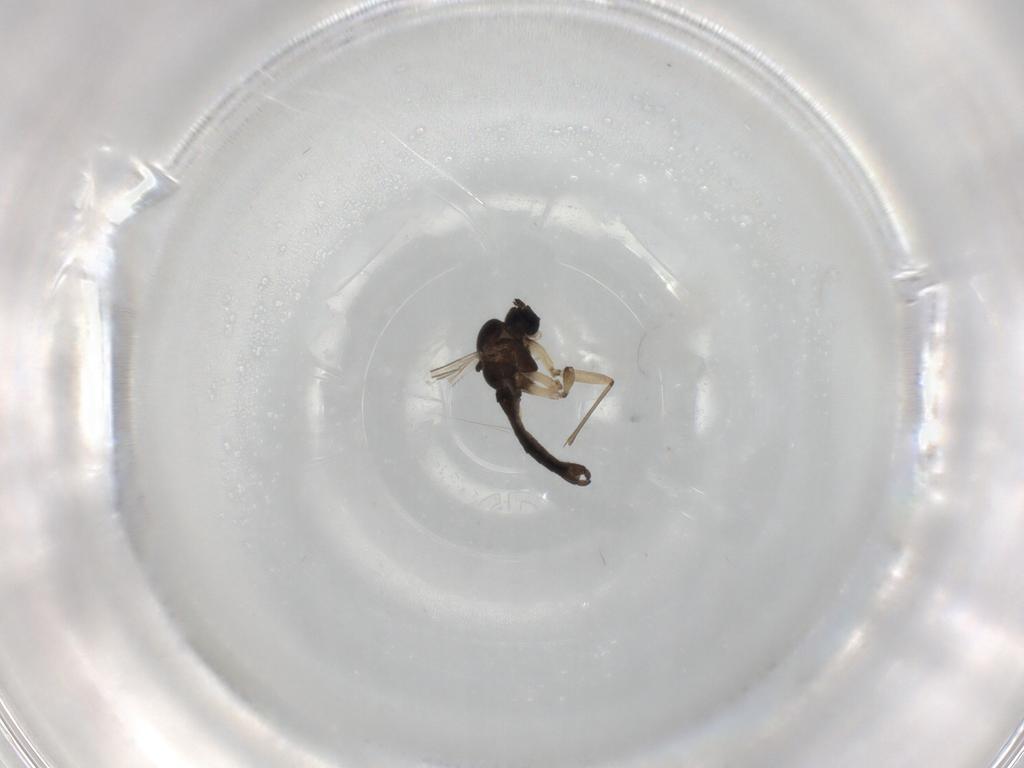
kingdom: Animalia
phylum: Arthropoda
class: Insecta
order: Diptera
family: Sciaridae
